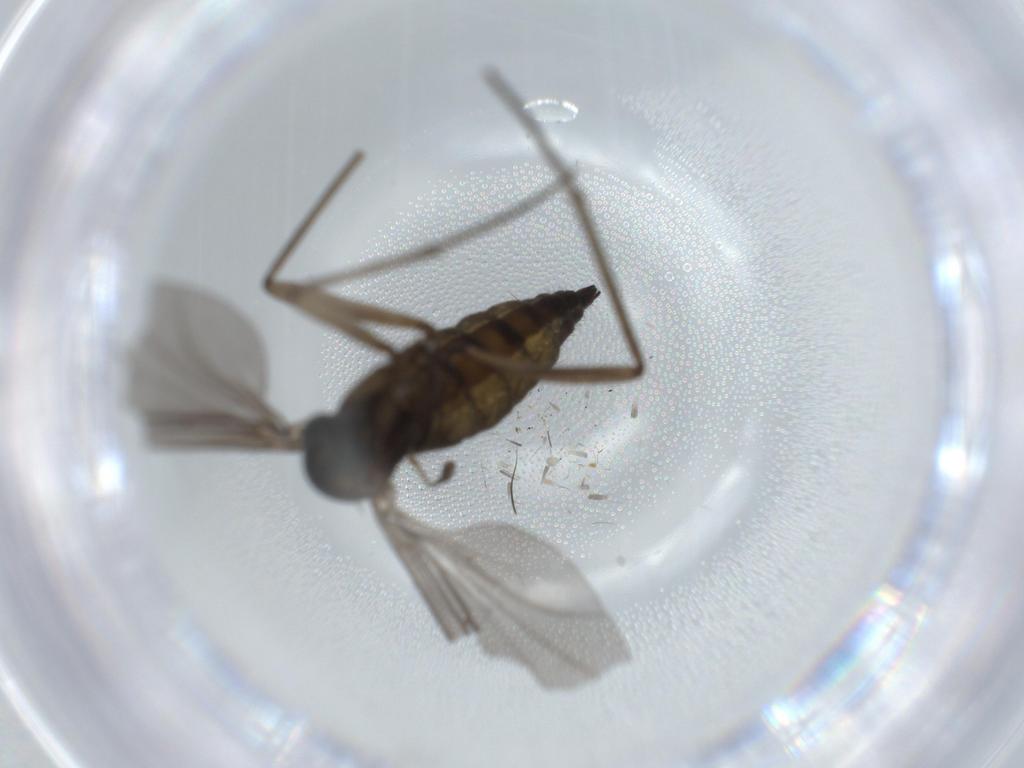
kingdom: Animalia
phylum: Arthropoda
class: Insecta
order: Diptera
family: Sciaridae
